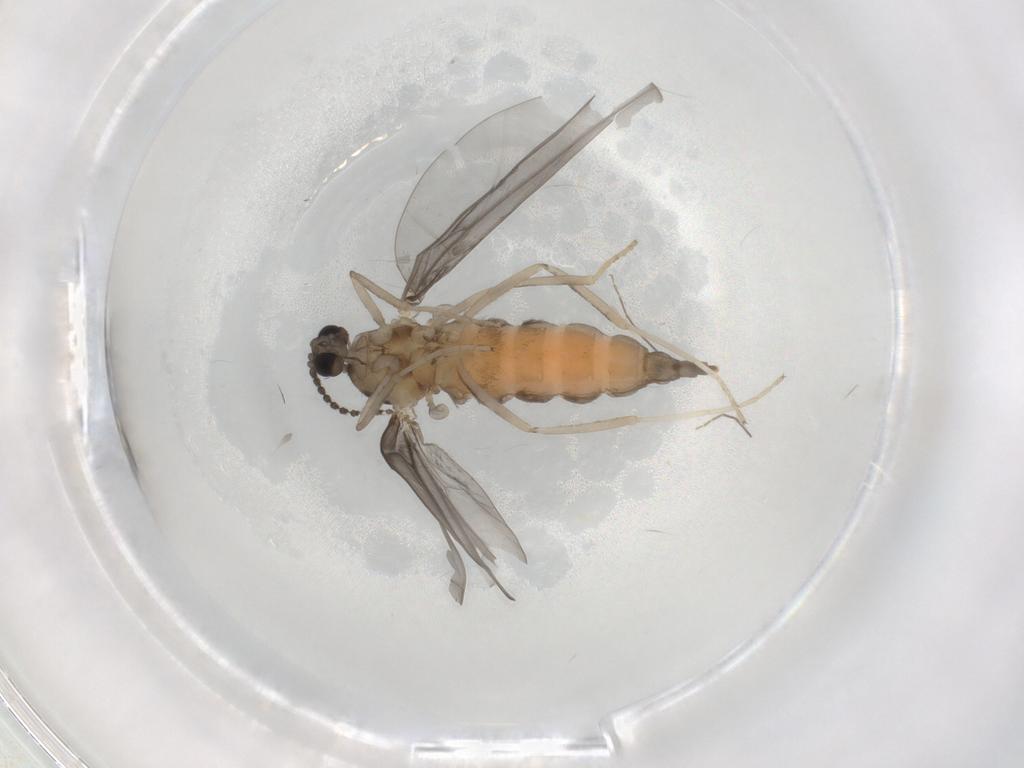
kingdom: Animalia
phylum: Arthropoda
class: Insecta
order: Diptera
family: Cecidomyiidae
